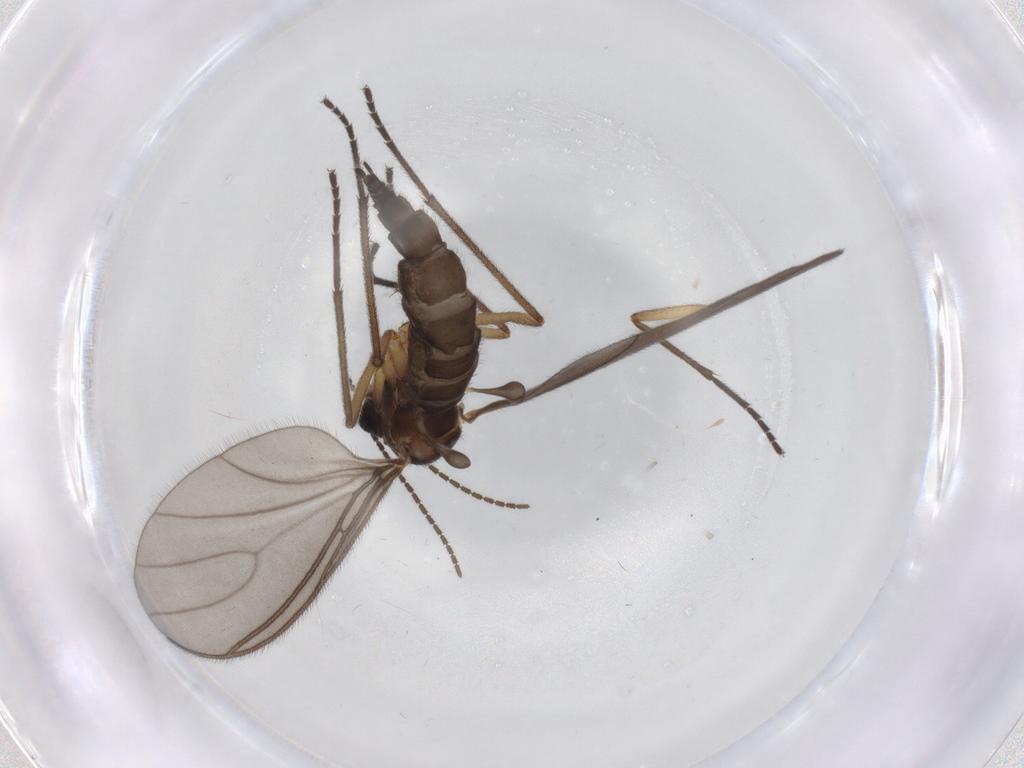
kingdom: Animalia
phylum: Arthropoda
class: Insecta
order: Diptera
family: Sciaridae
